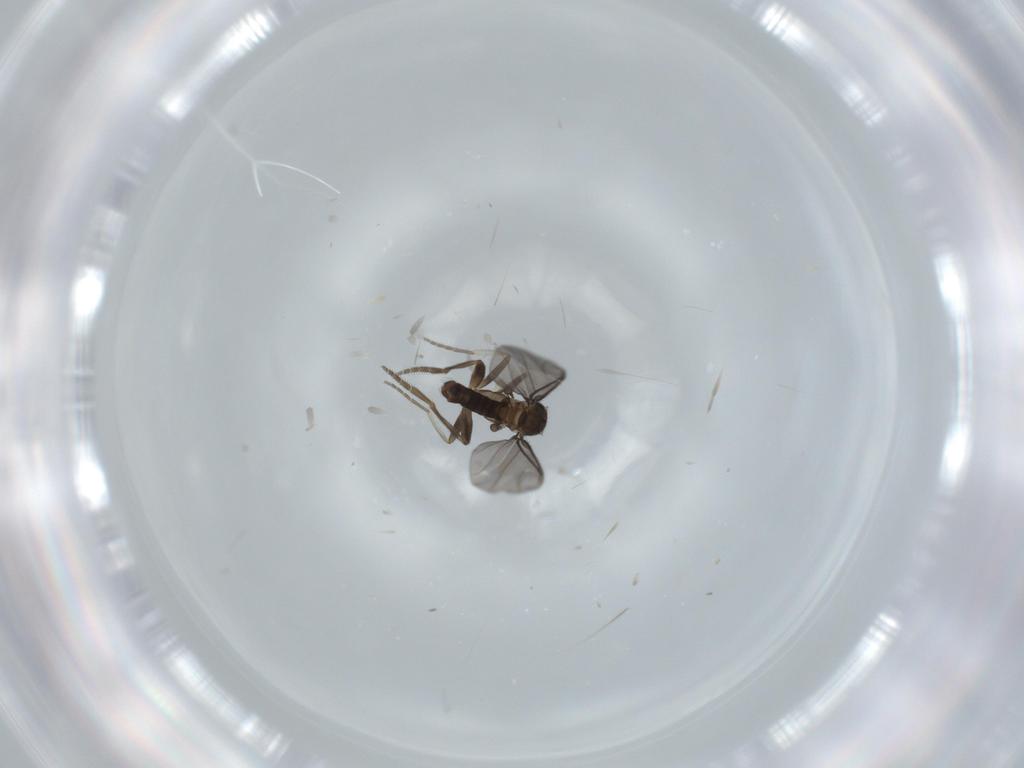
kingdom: Animalia
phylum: Arthropoda
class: Insecta
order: Diptera
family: Phoridae
